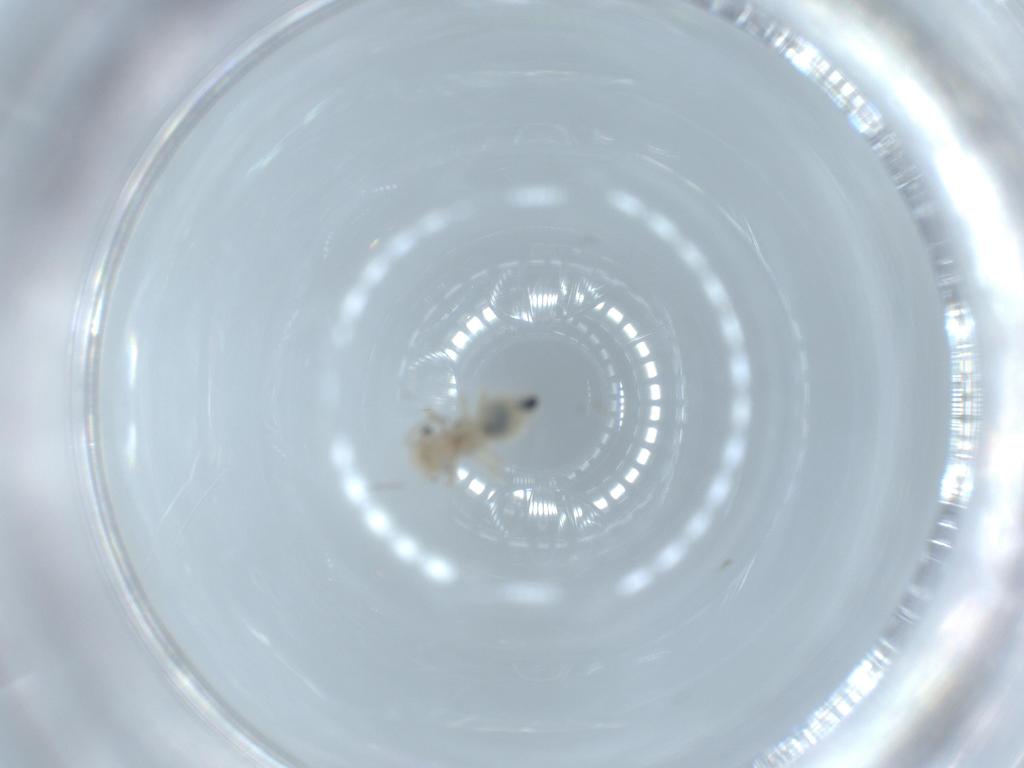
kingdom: Animalia
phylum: Arthropoda
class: Insecta
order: Psocodea
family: Amphipsocidae
